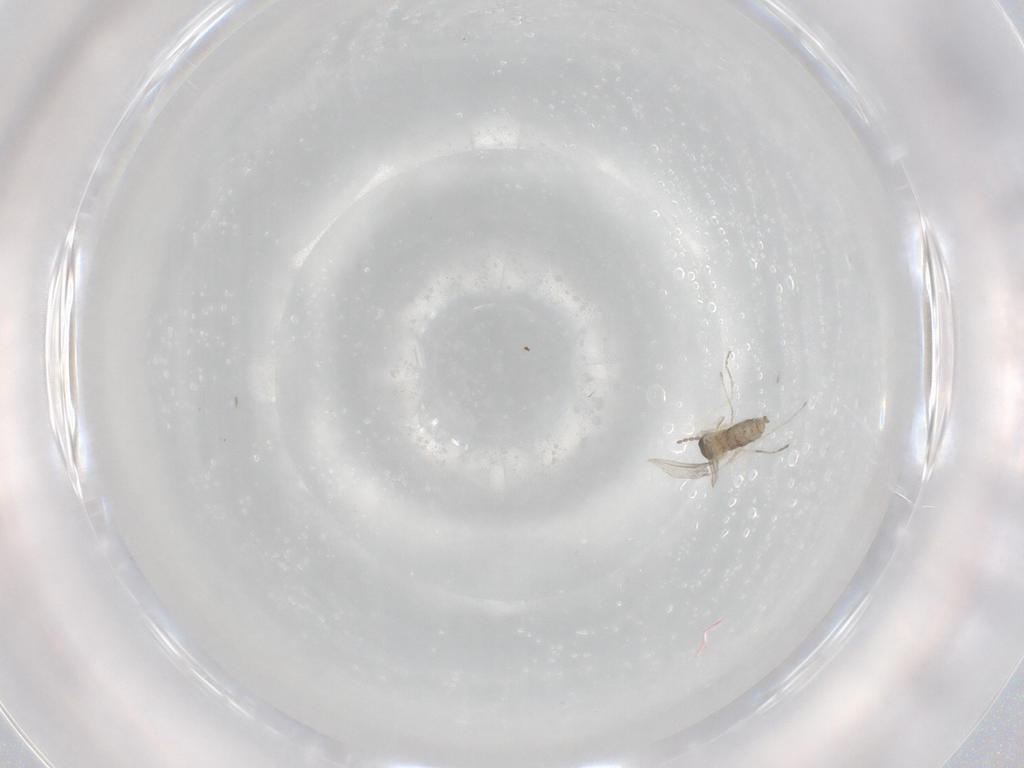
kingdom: Animalia
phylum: Arthropoda
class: Insecta
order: Diptera
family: Cecidomyiidae
